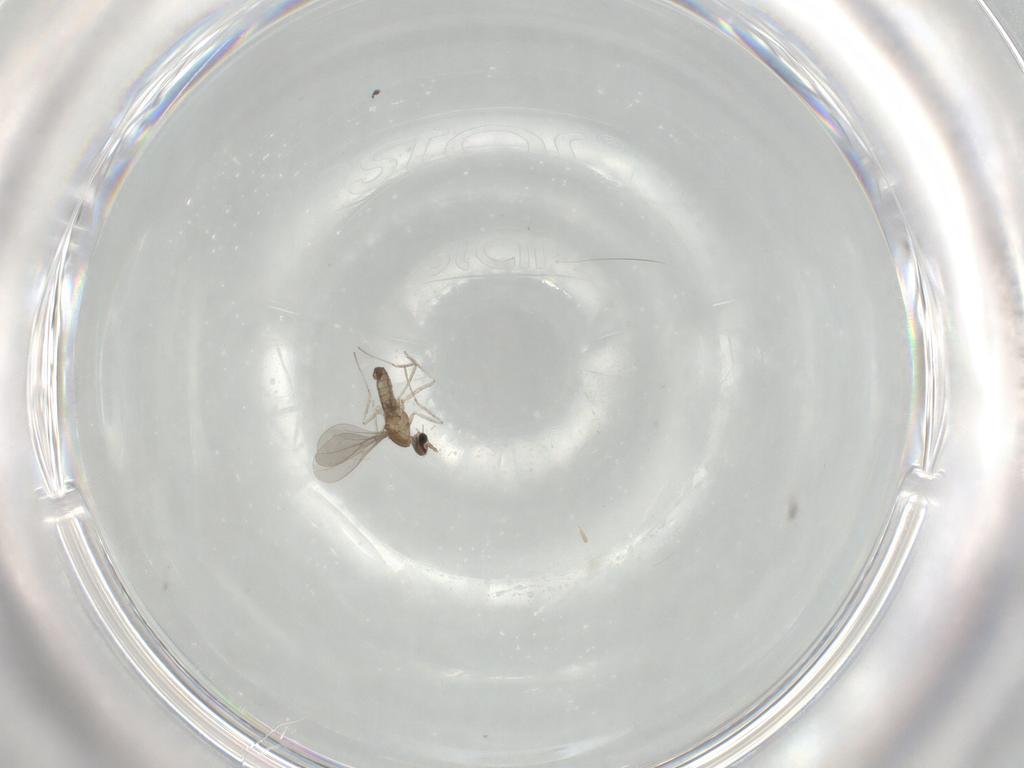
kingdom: Animalia
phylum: Arthropoda
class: Insecta
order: Diptera
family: Cecidomyiidae
